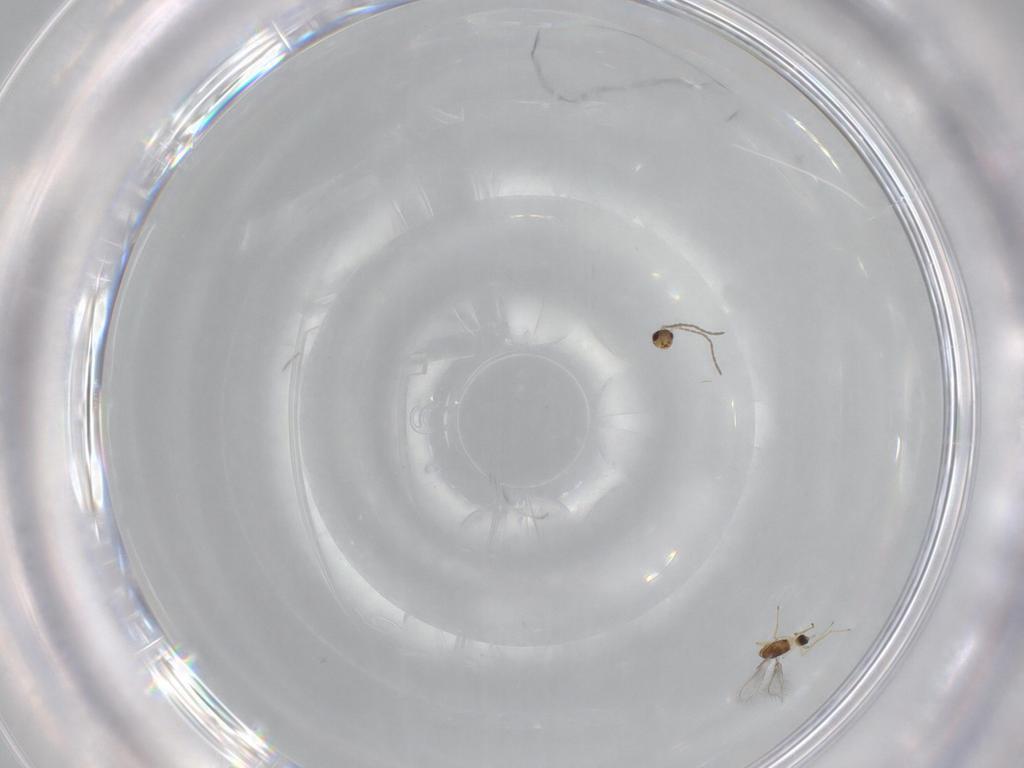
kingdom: Animalia
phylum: Arthropoda
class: Insecta
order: Hymenoptera
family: Mymaridae
